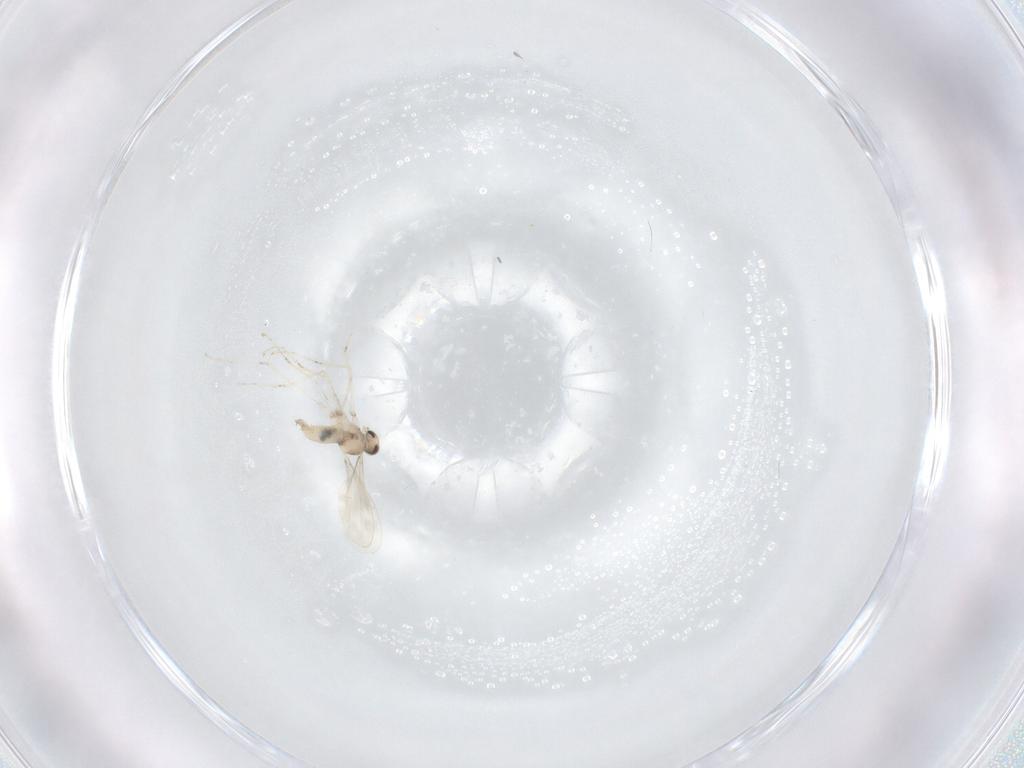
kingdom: Animalia
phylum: Arthropoda
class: Insecta
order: Diptera
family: Cecidomyiidae
